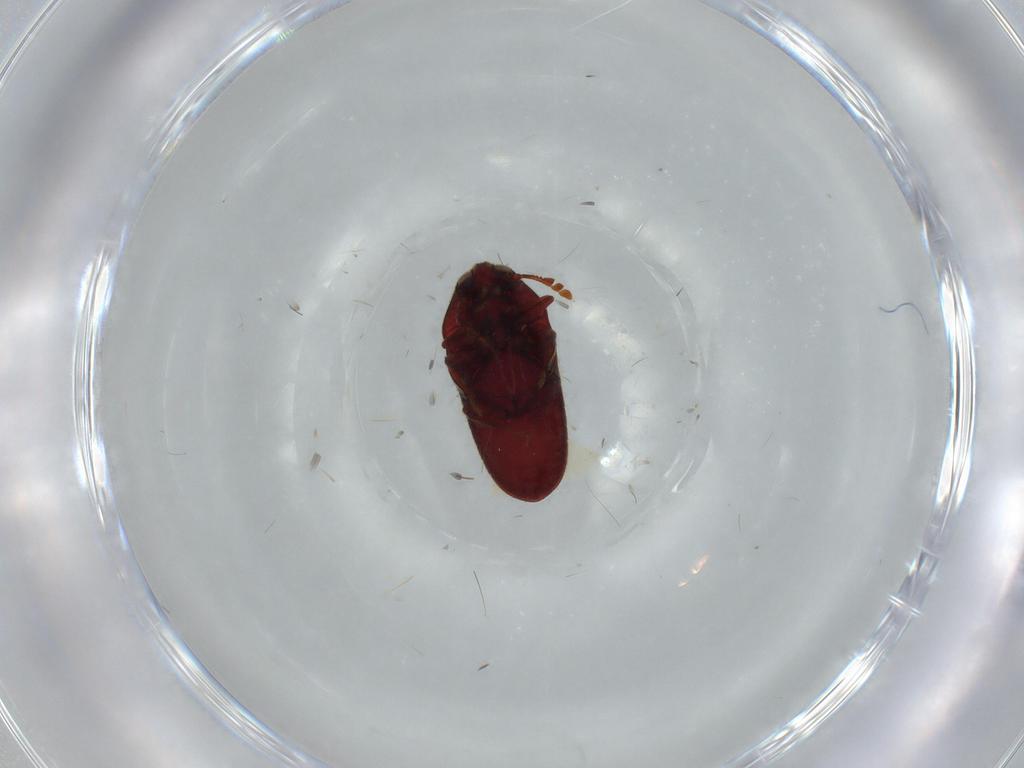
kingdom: Animalia
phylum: Arthropoda
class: Insecta
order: Coleoptera
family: Throscidae
